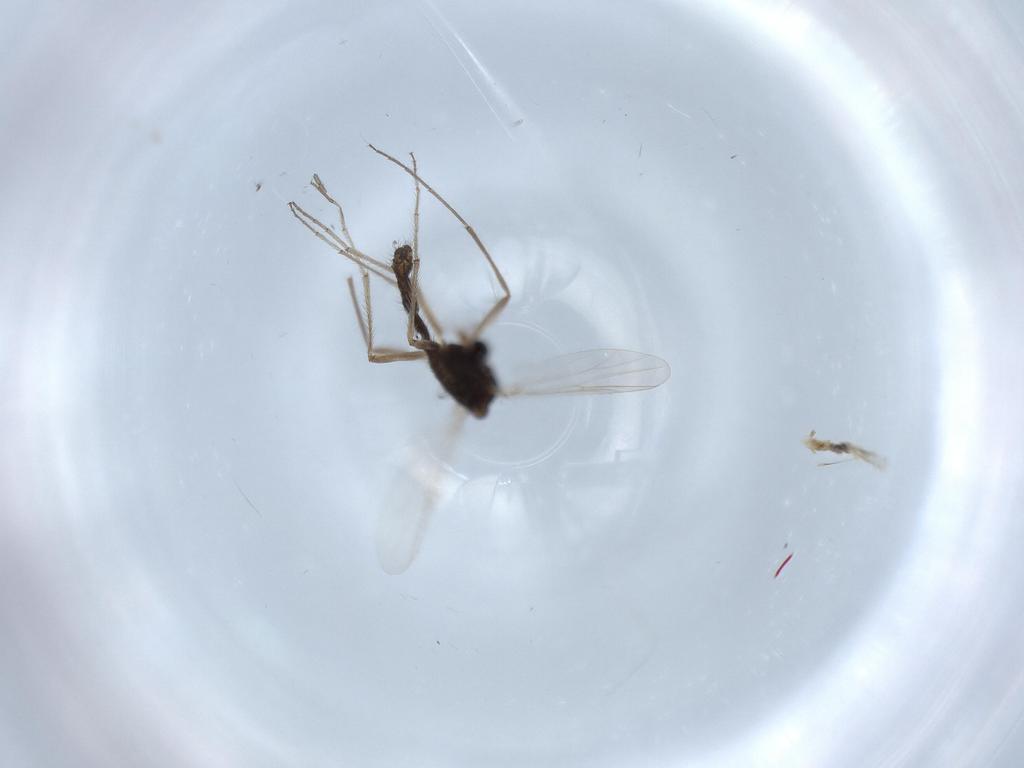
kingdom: Animalia
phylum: Arthropoda
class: Insecta
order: Diptera
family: Chironomidae
